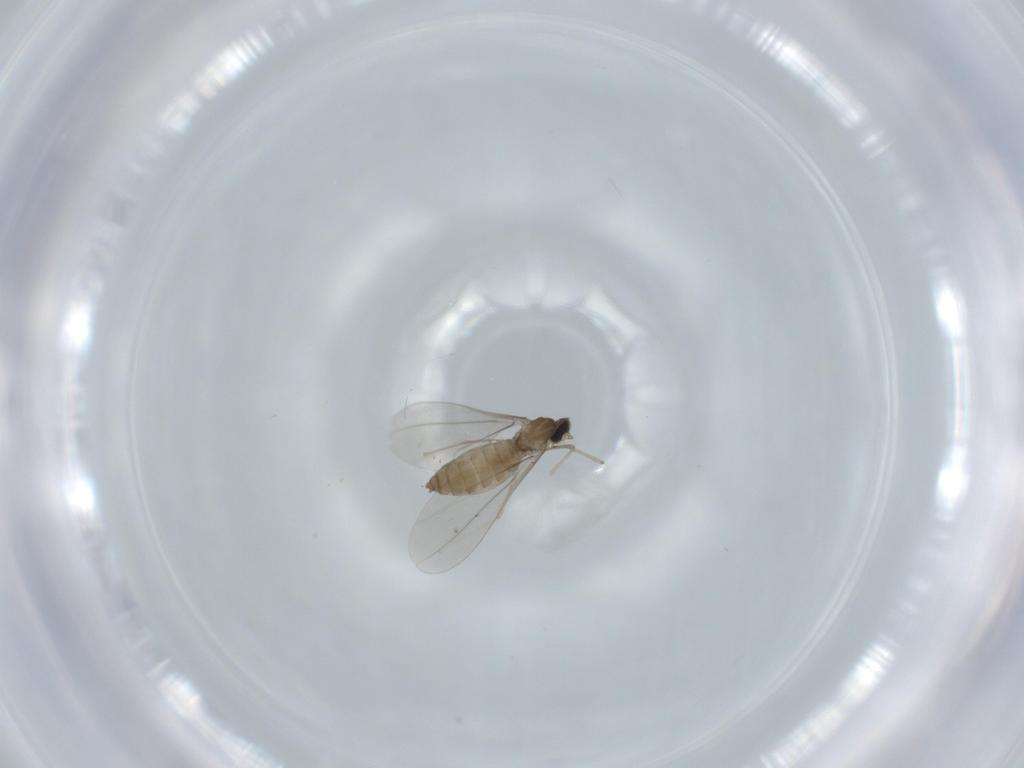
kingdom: Animalia
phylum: Arthropoda
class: Insecta
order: Diptera
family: Cecidomyiidae
